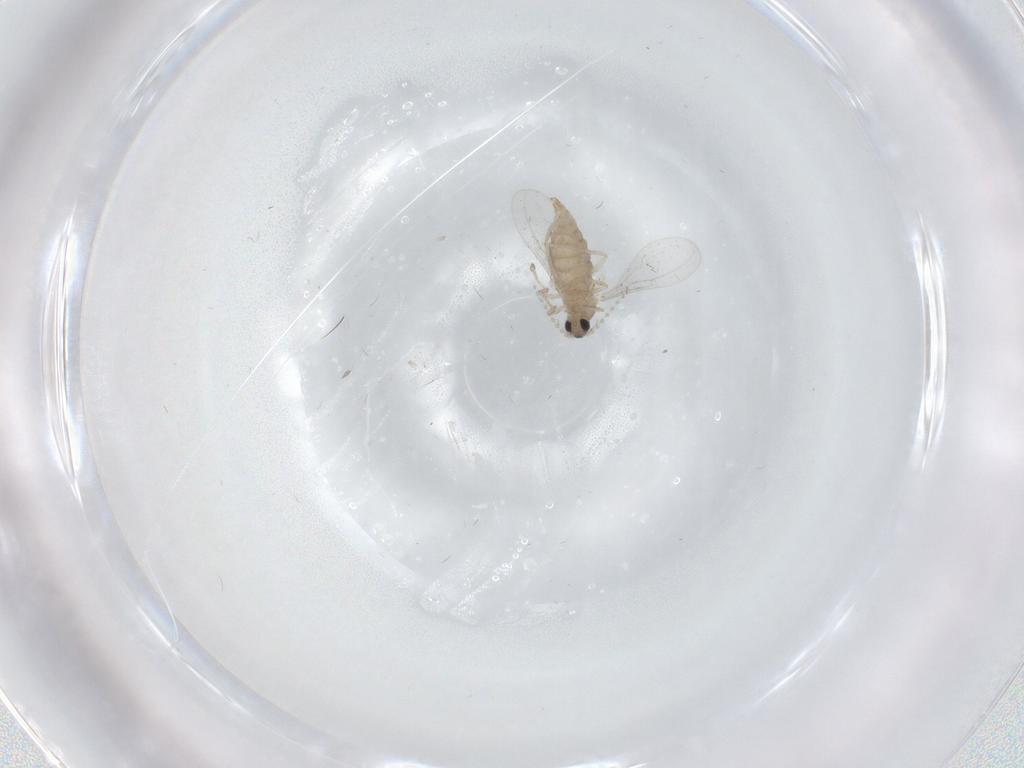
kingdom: Animalia
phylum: Arthropoda
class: Insecta
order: Diptera
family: Cecidomyiidae
